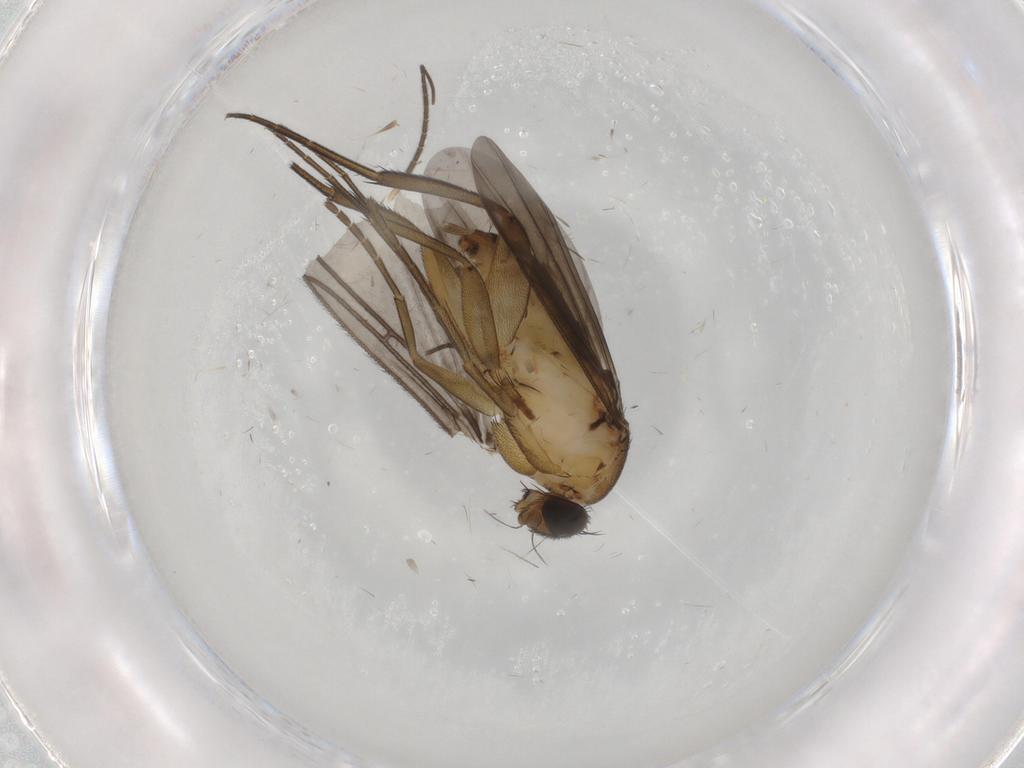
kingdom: Animalia
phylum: Arthropoda
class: Insecta
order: Diptera
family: Phoridae
